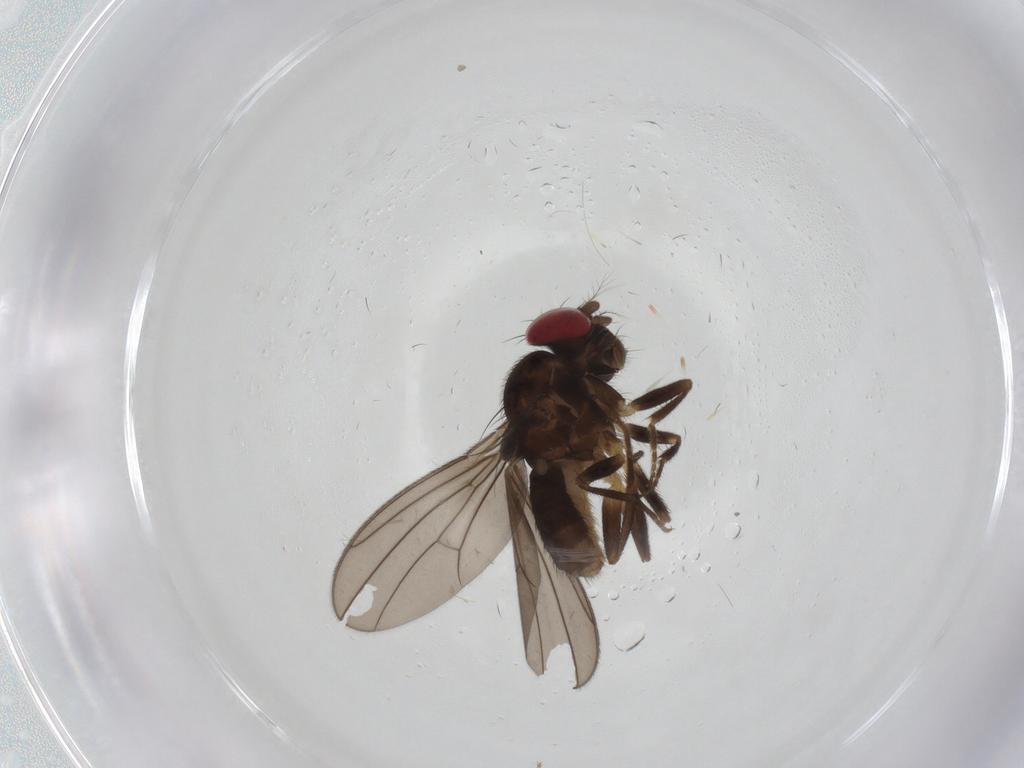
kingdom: Animalia
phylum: Arthropoda
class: Insecta
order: Diptera
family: Drosophilidae
